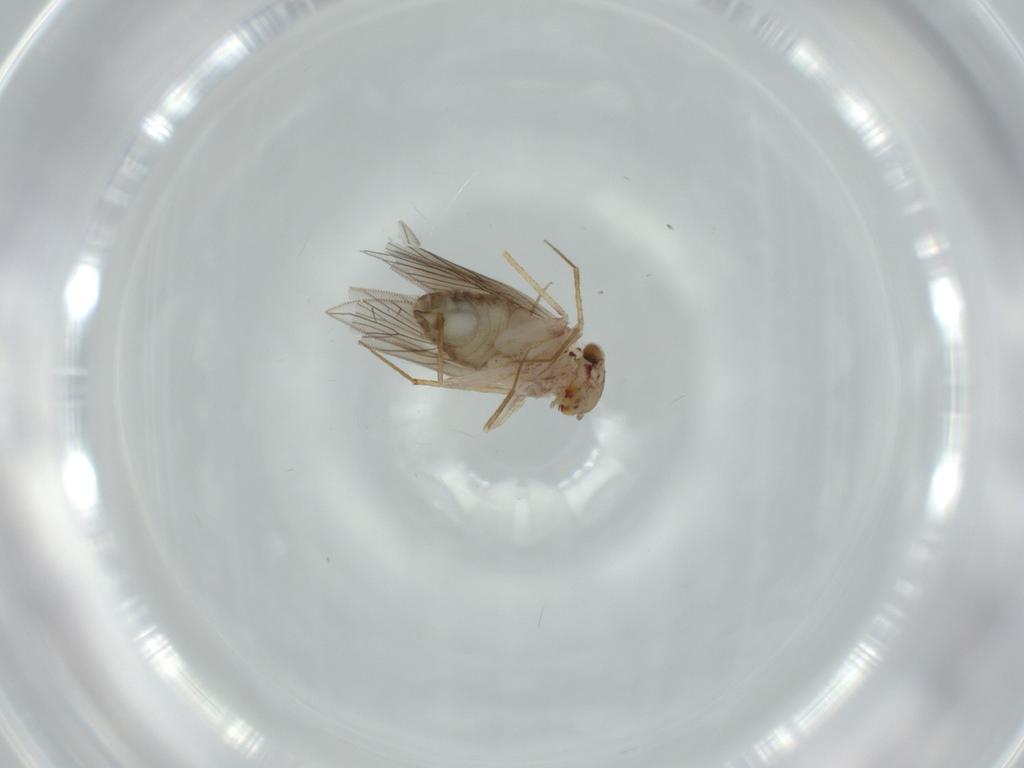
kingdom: Animalia
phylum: Arthropoda
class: Insecta
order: Psocodea
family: Lepidopsocidae
